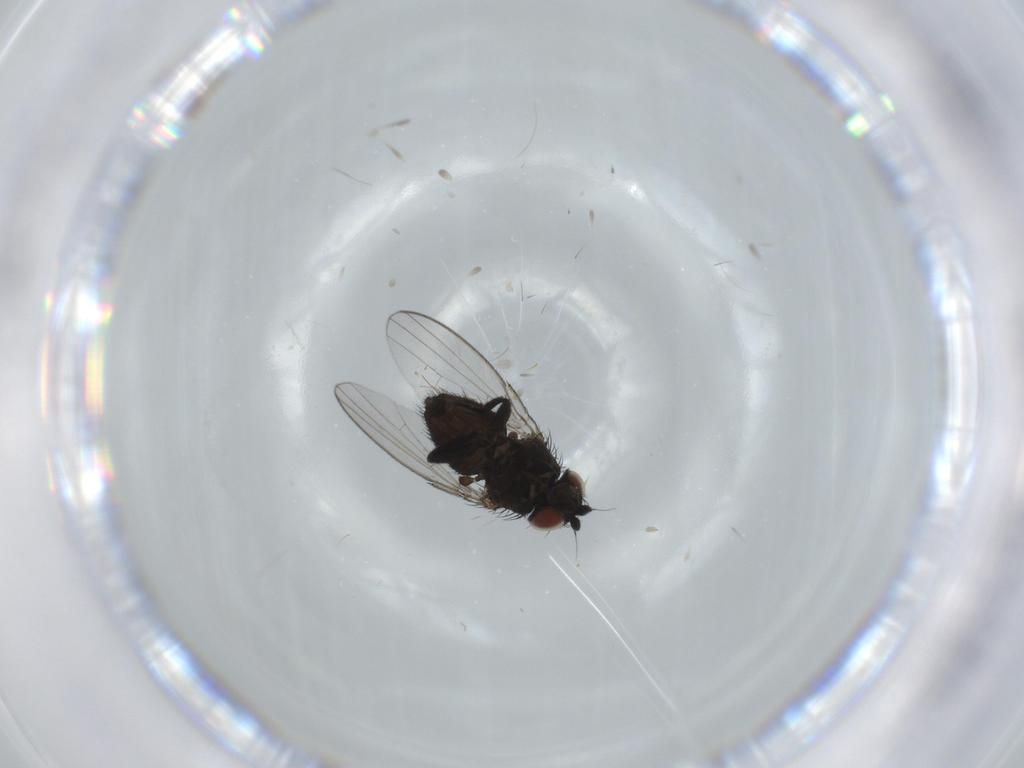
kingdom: Animalia
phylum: Arthropoda
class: Insecta
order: Diptera
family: Milichiidae
